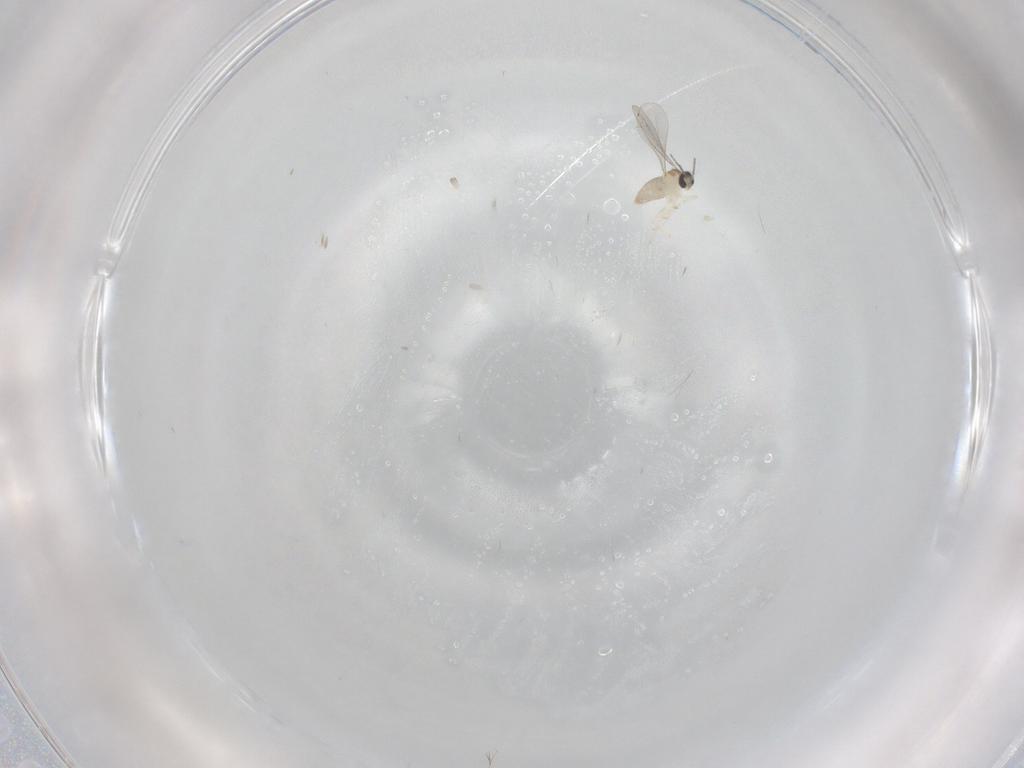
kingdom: Animalia
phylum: Arthropoda
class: Insecta
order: Diptera
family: Cecidomyiidae
